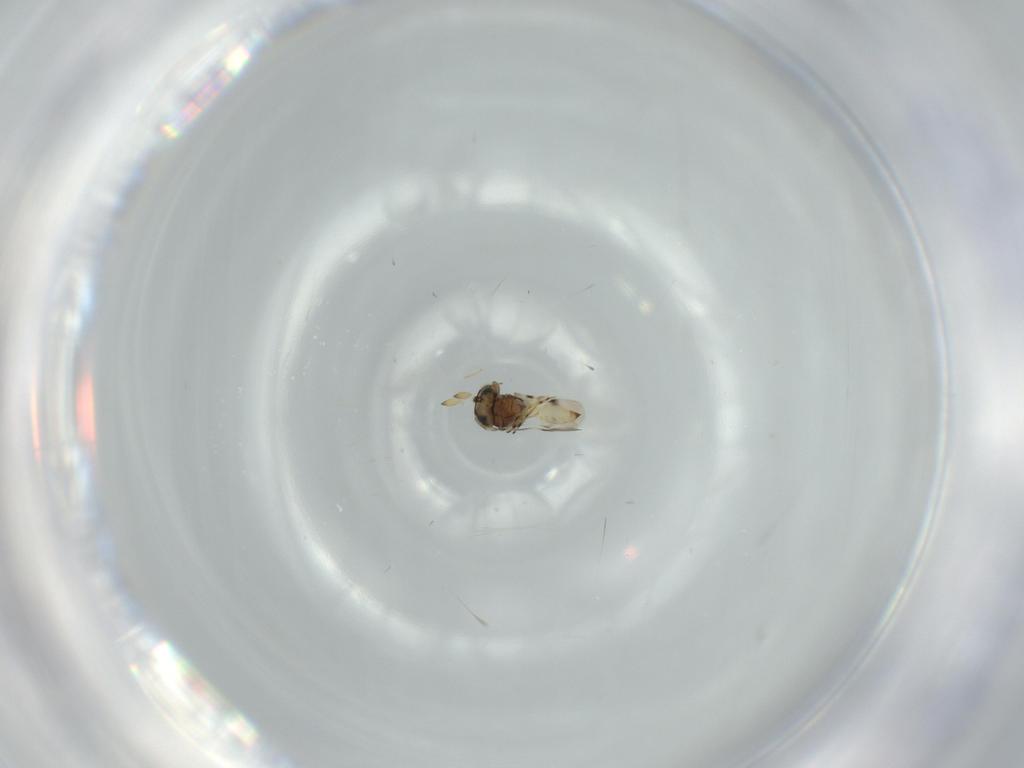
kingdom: Animalia
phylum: Arthropoda
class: Insecta
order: Hymenoptera
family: Scelionidae
